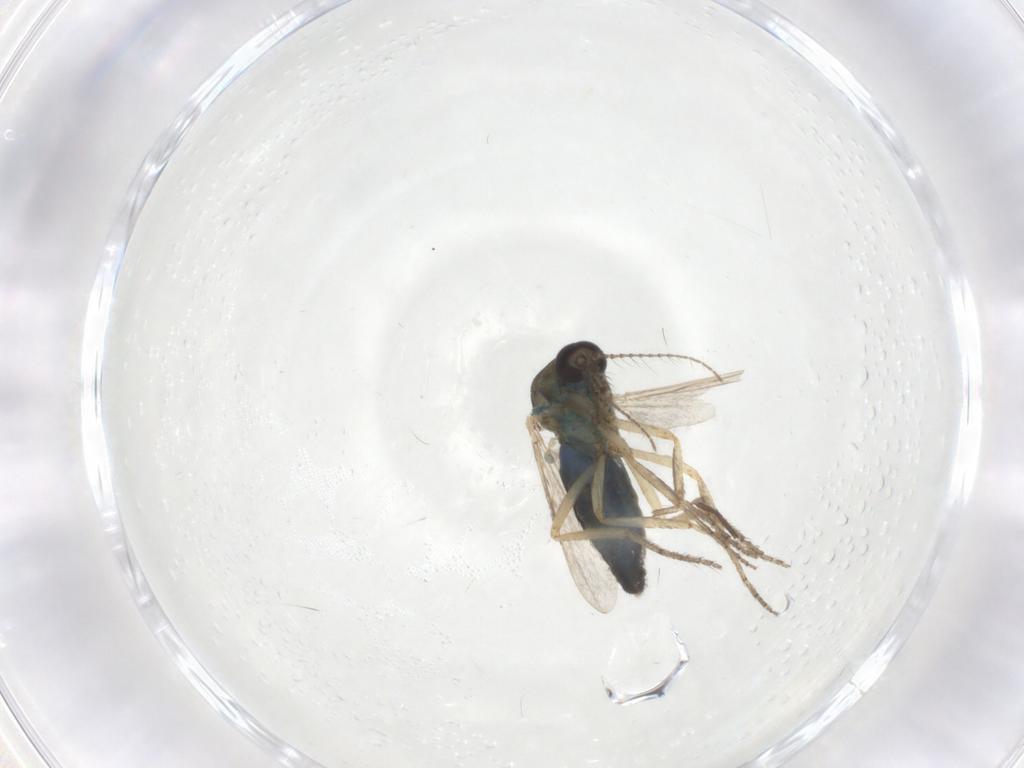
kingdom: Animalia
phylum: Arthropoda
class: Insecta
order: Diptera
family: Ceratopogonidae
